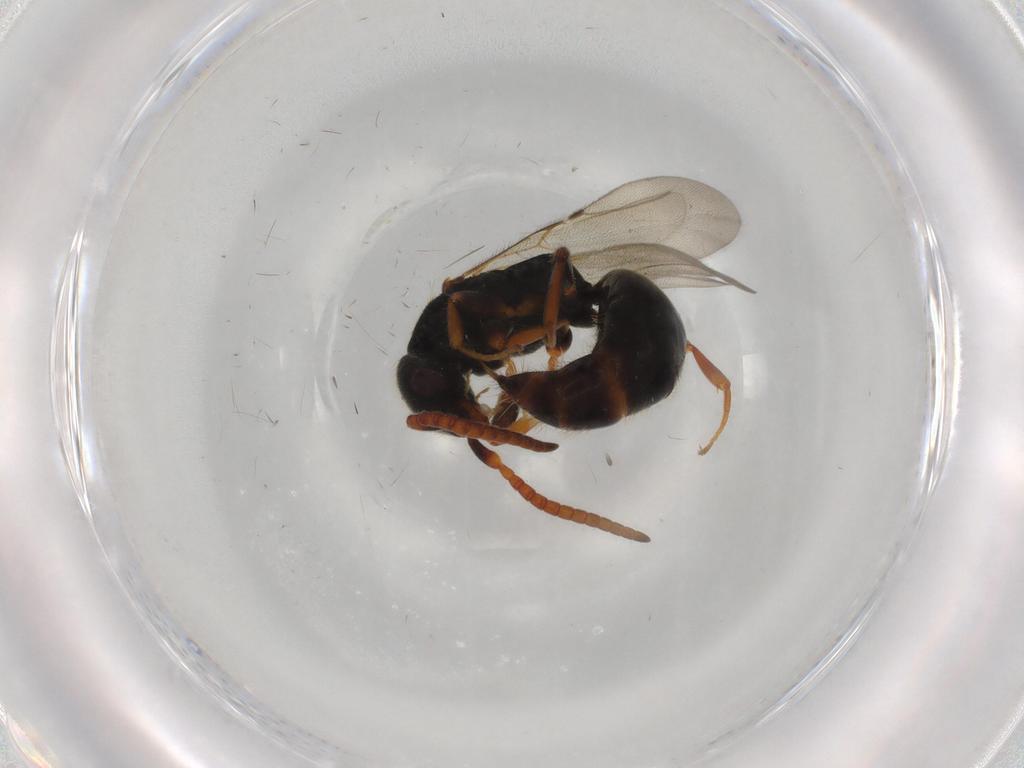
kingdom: Animalia
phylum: Arthropoda
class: Insecta
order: Hymenoptera
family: Bethylidae
